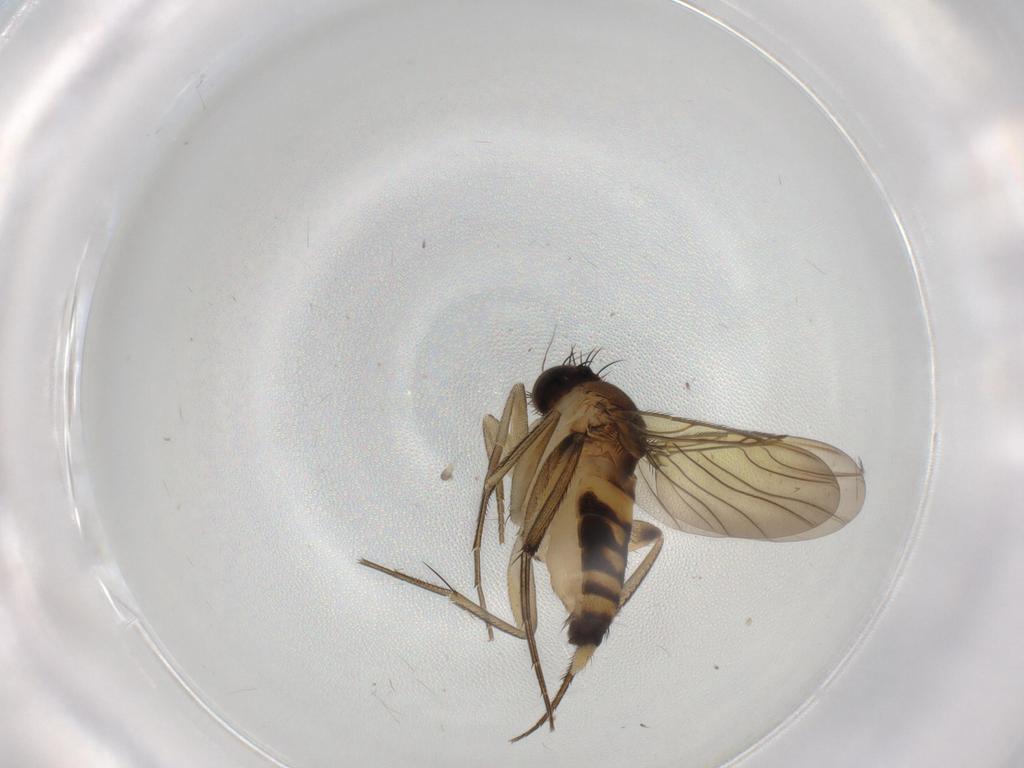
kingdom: Animalia
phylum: Arthropoda
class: Insecta
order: Diptera
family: Phoridae
